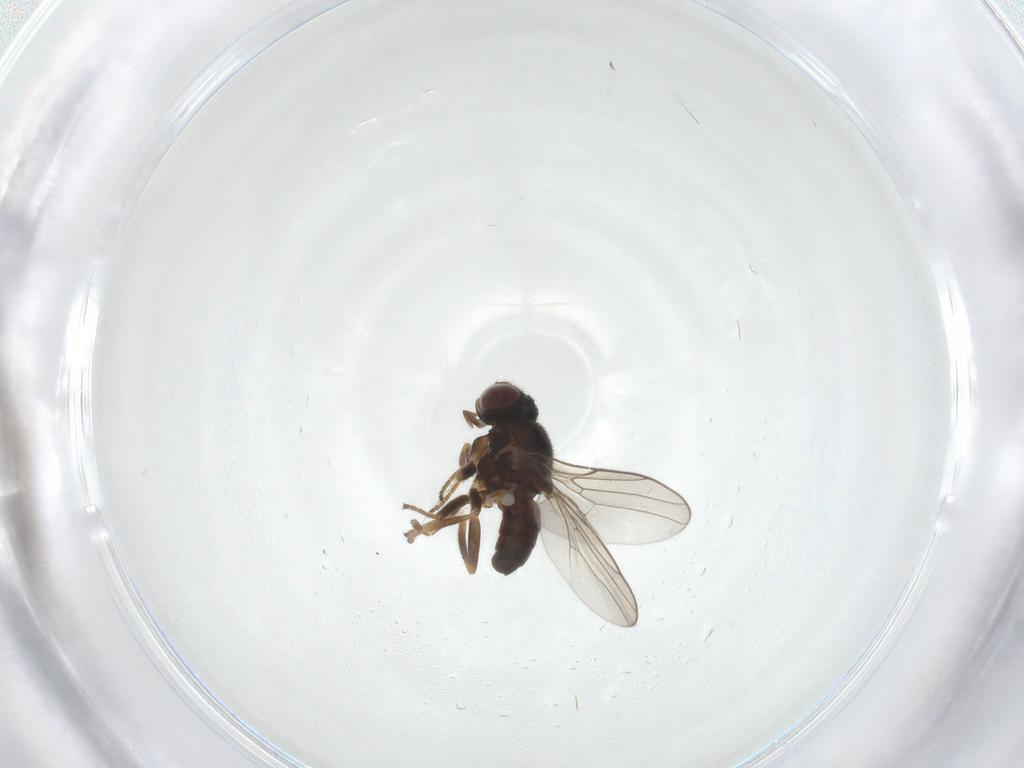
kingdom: Animalia
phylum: Arthropoda
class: Insecta
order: Diptera
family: Chloropidae
